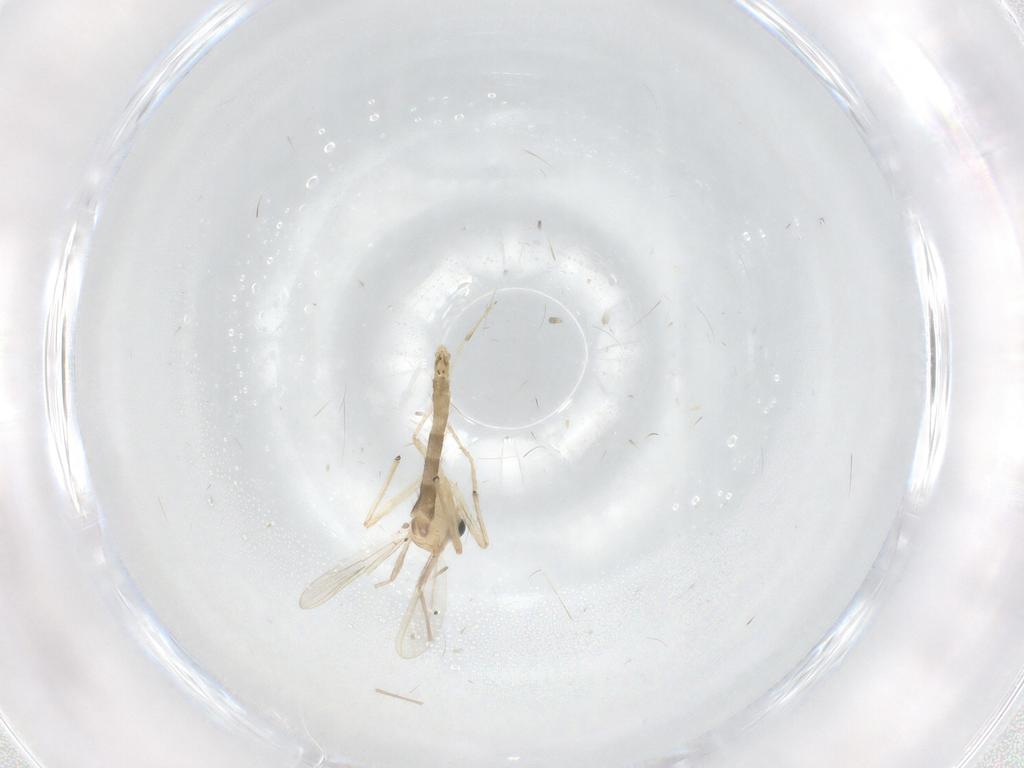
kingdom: Animalia
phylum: Arthropoda
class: Insecta
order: Diptera
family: Chironomidae
